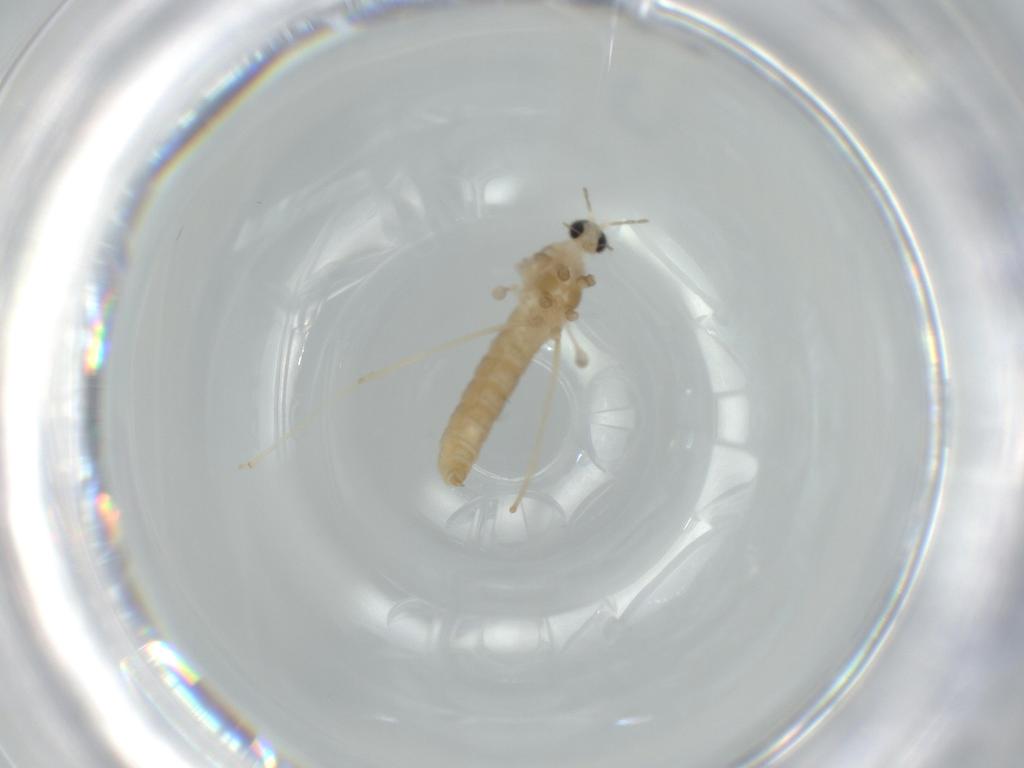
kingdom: Animalia
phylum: Arthropoda
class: Insecta
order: Diptera
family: Cecidomyiidae
